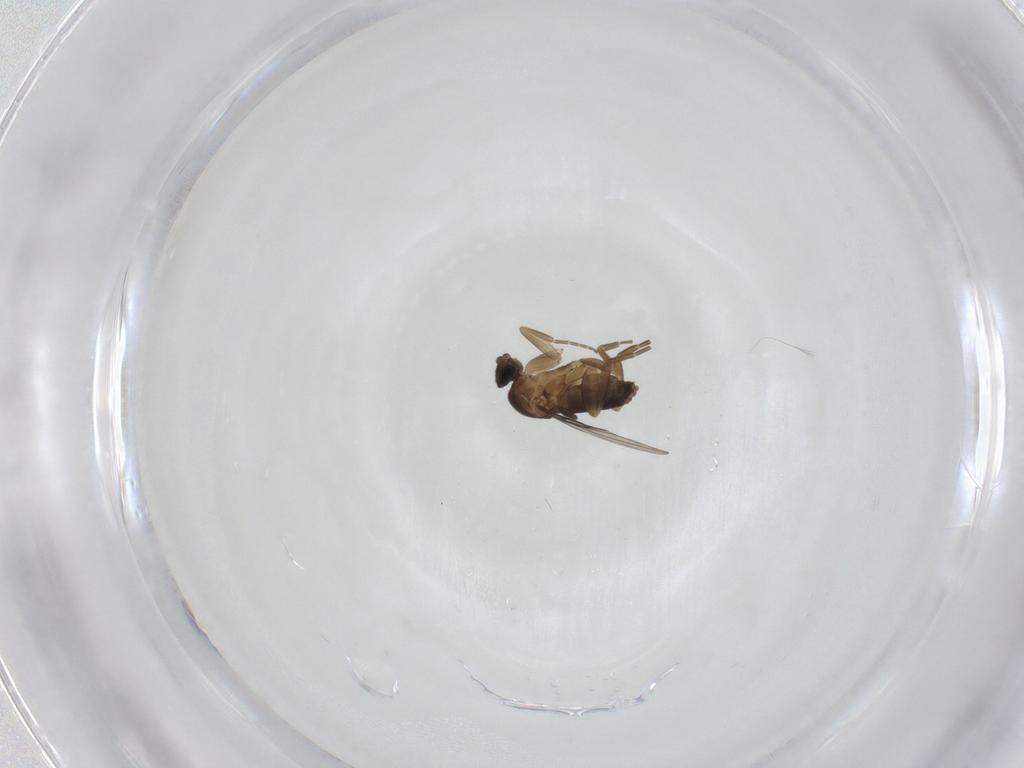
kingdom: Animalia
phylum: Arthropoda
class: Insecta
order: Diptera
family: Phoridae
